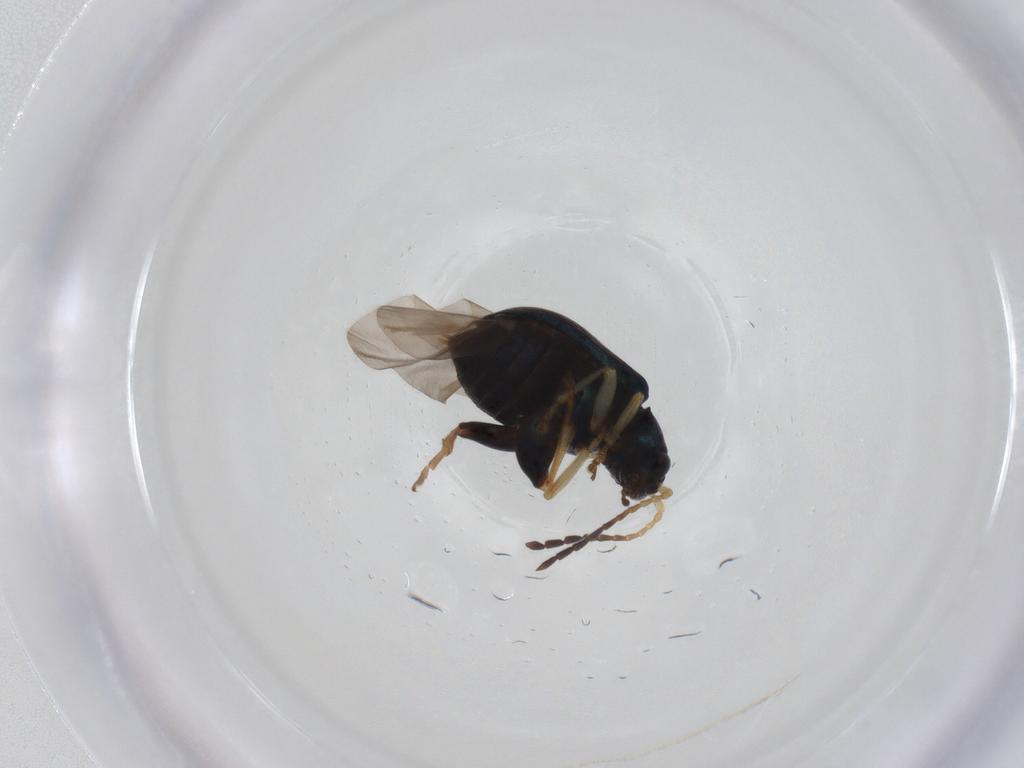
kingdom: Animalia
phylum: Arthropoda
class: Insecta
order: Coleoptera
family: Chrysomelidae
